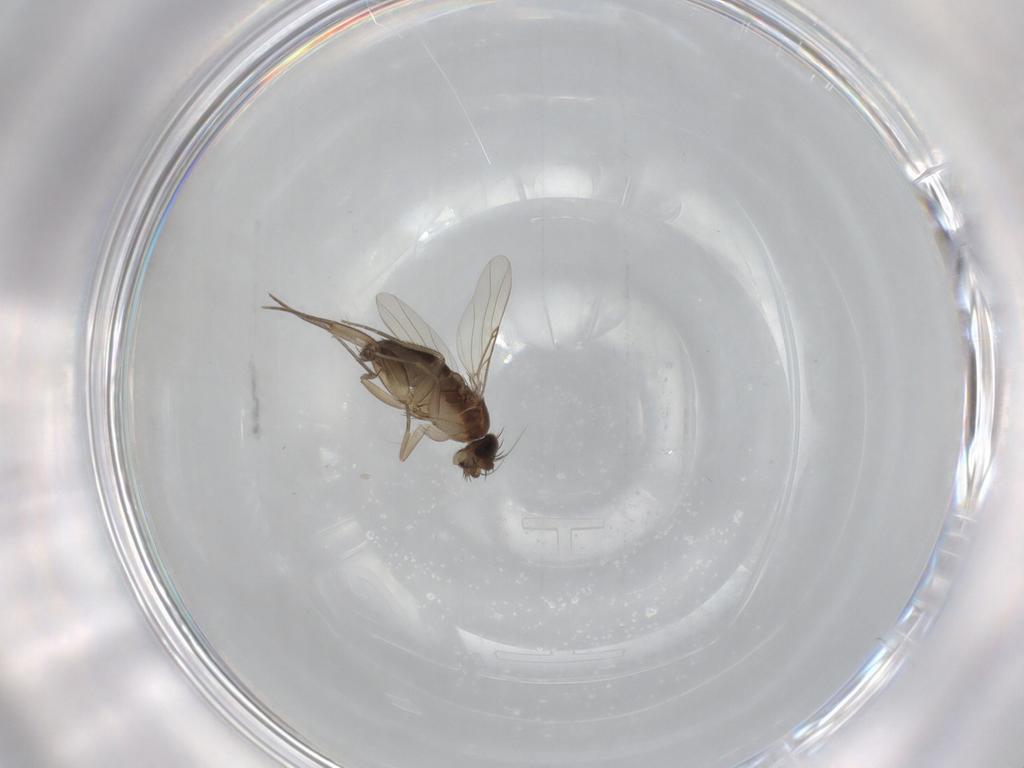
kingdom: Animalia
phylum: Arthropoda
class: Insecta
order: Diptera
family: Phoridae
